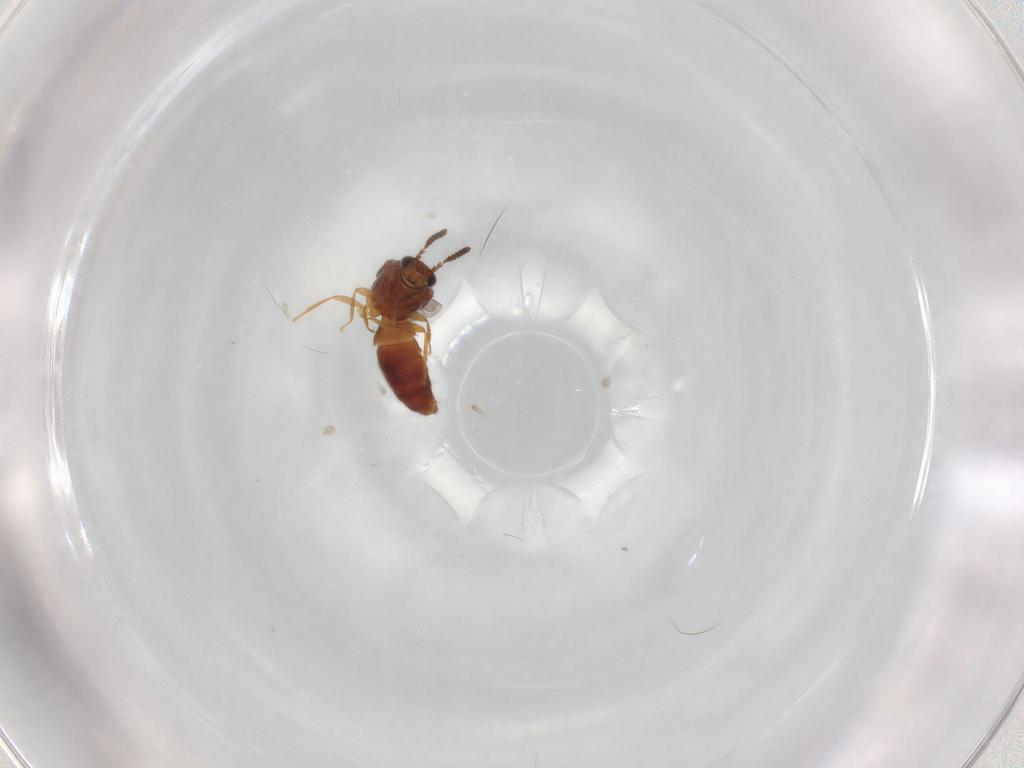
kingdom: Animalia
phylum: Arthropoda
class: Insecta
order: Coleoptera
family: Staphylinidae
